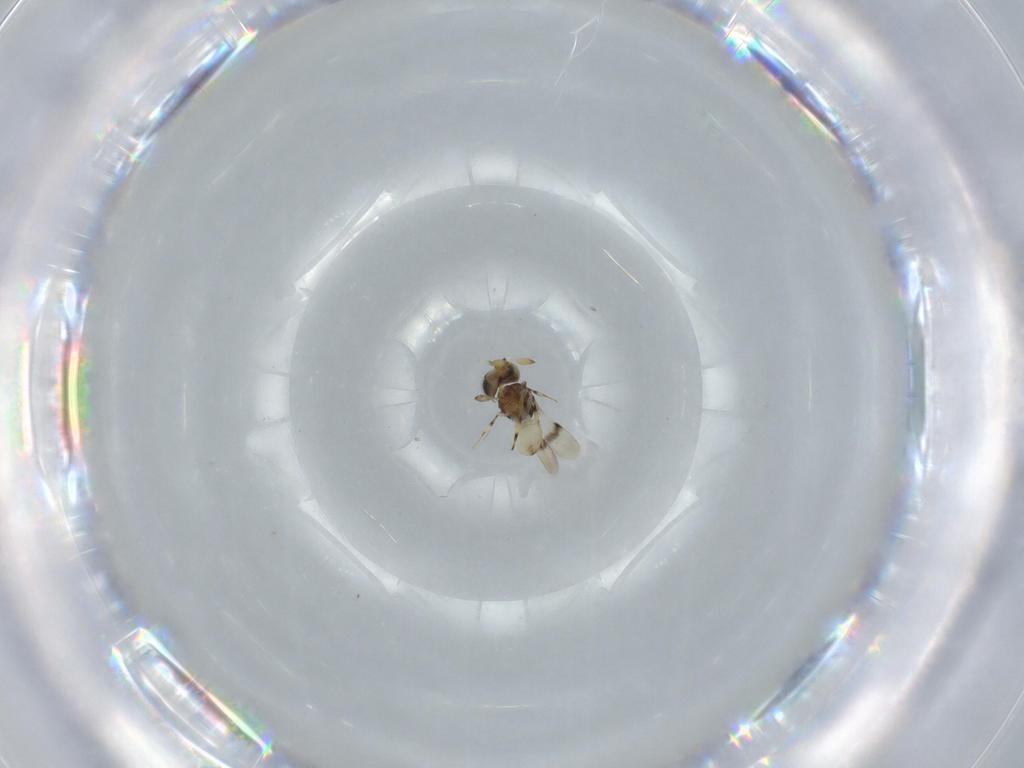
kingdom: Animalia
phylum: Arthropoda
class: Insecta
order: Hymenoptera
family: Scelionidae
